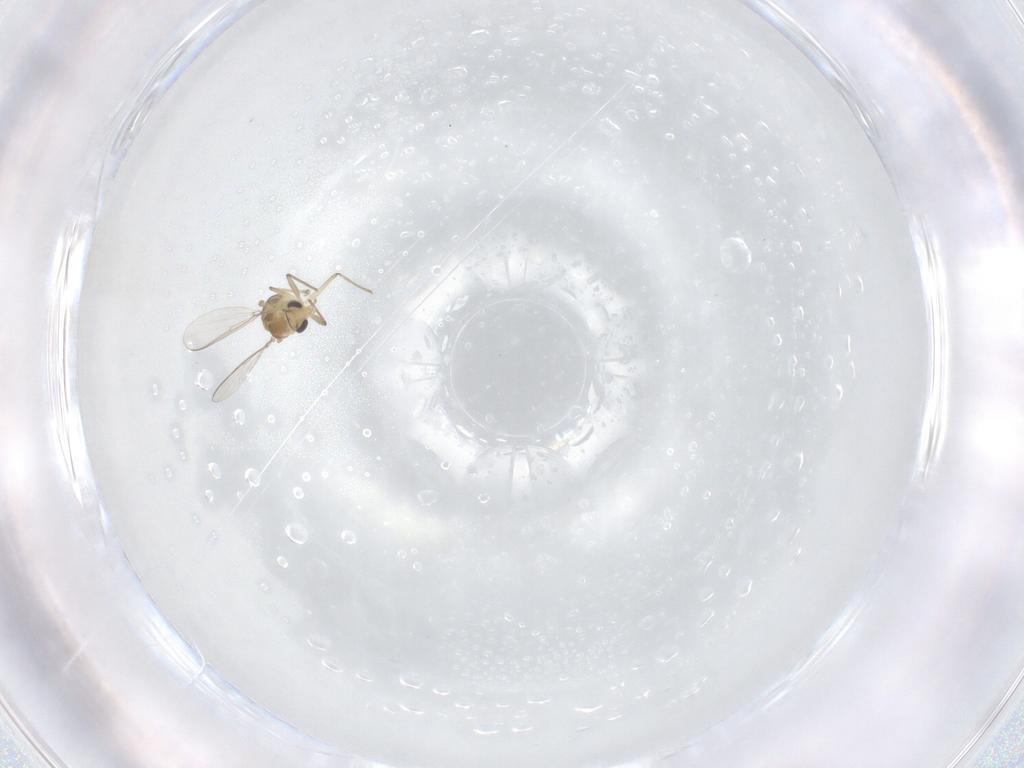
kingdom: Animalia
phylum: Arthropoda
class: Insecta
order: Diptera
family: Chironomidae
